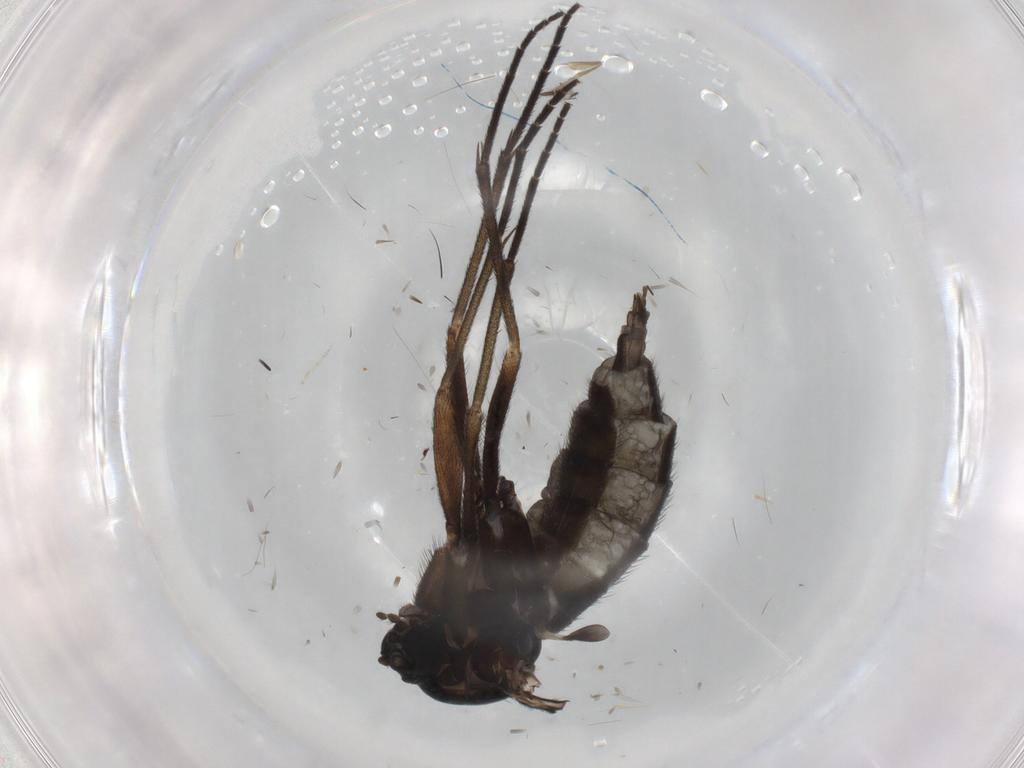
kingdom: Animalia
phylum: Arthropoda
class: Insecta
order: Diptera
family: Sciaridae
